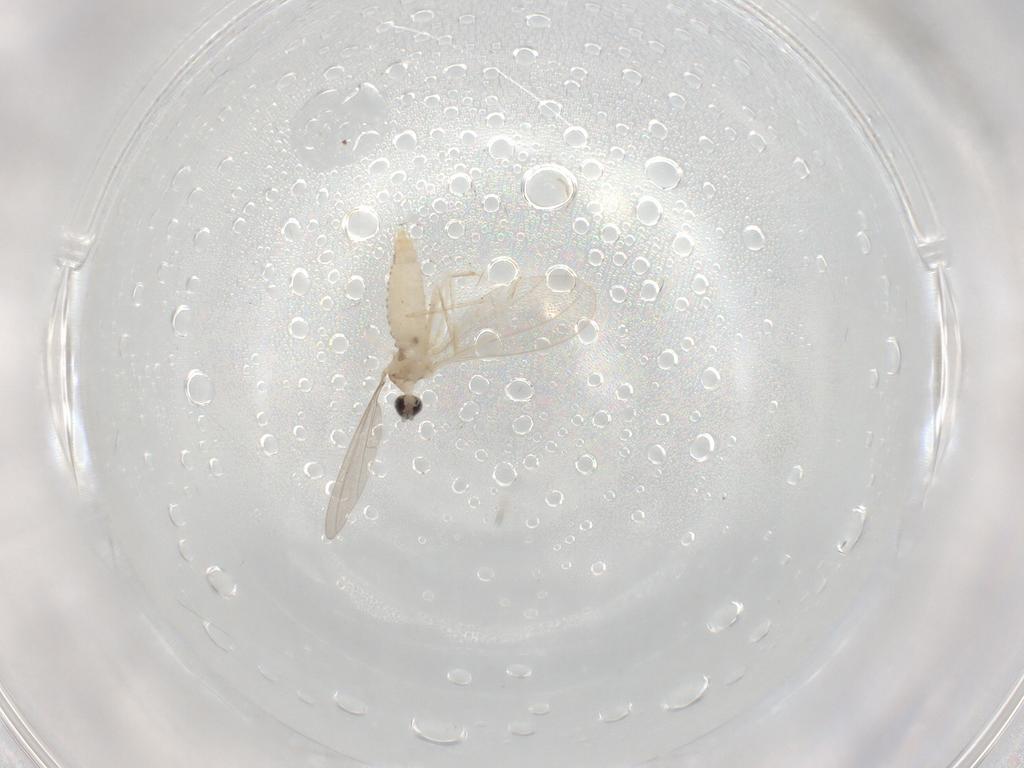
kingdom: Animalia
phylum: Arthropoda
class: Insecta
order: Diptera
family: Cecidomyiidae
